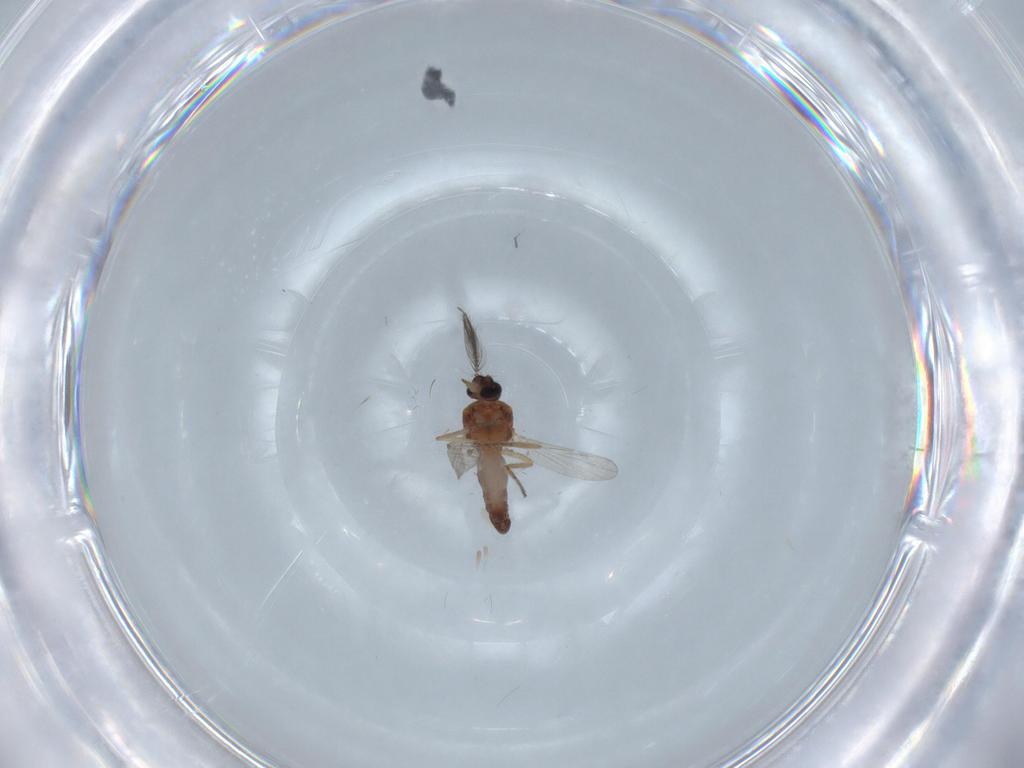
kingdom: Animalia
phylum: Arthropoda
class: Insecta
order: Diptera
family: Ceratopogonidae
